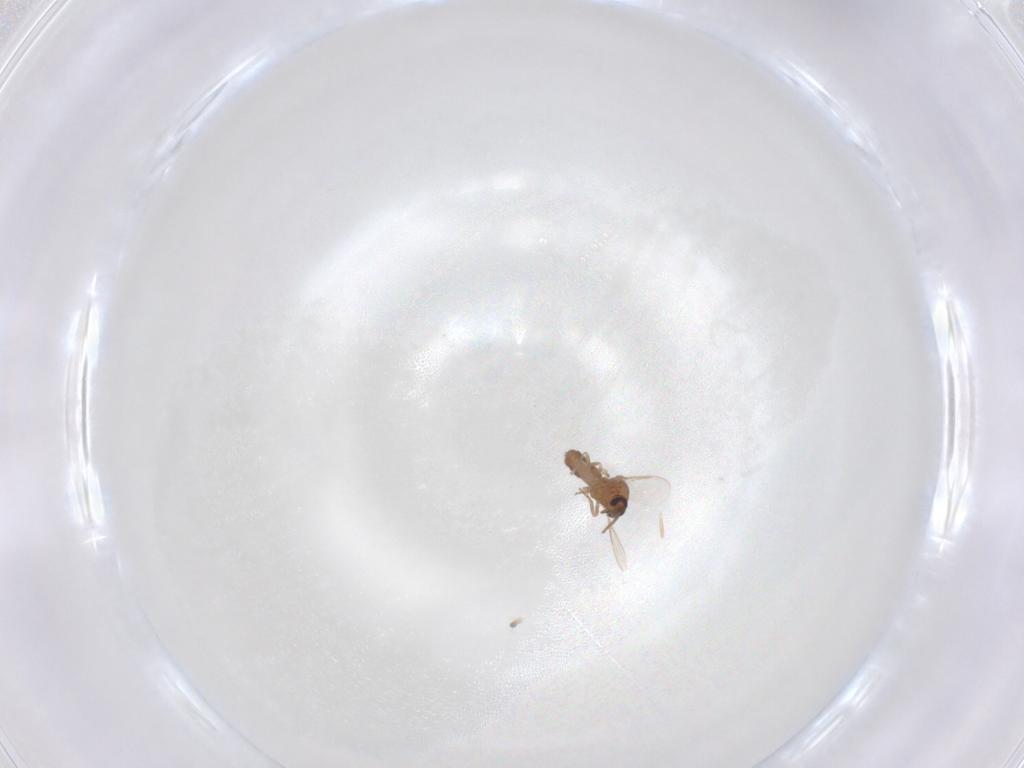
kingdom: Animalia
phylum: Arthropoda
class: Insecta
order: Diptera
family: Ceratopogonidae
